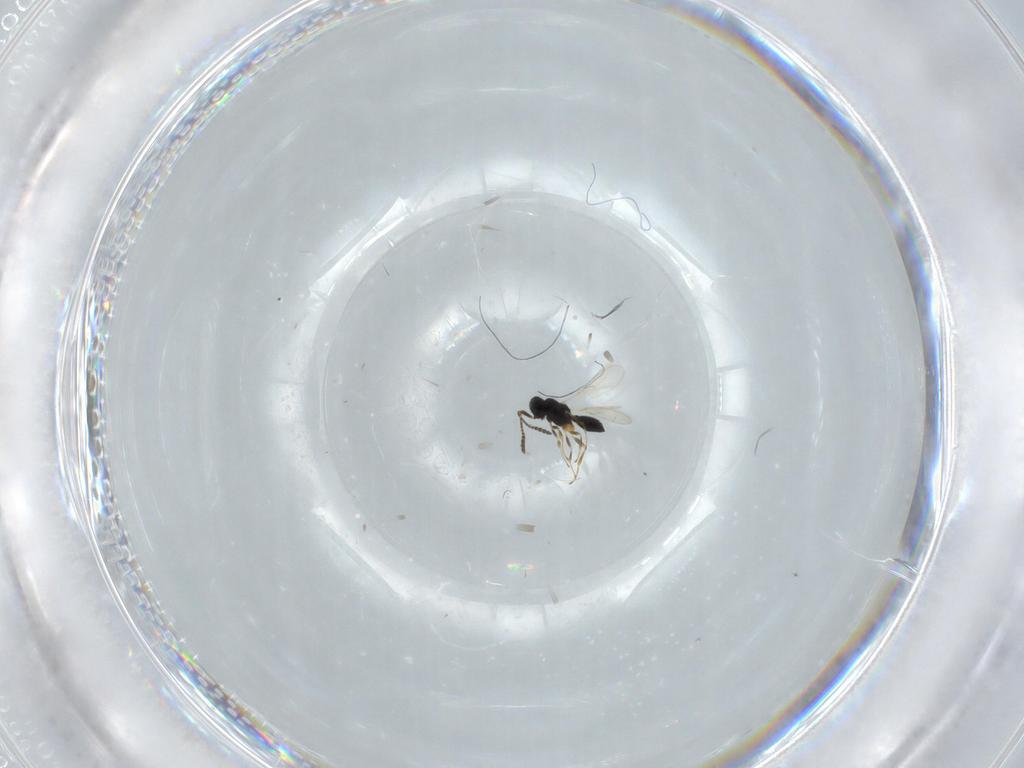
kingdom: Animalia
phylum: Arthropoda
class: Insecta
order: Hymenoptera
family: Scelionidae
